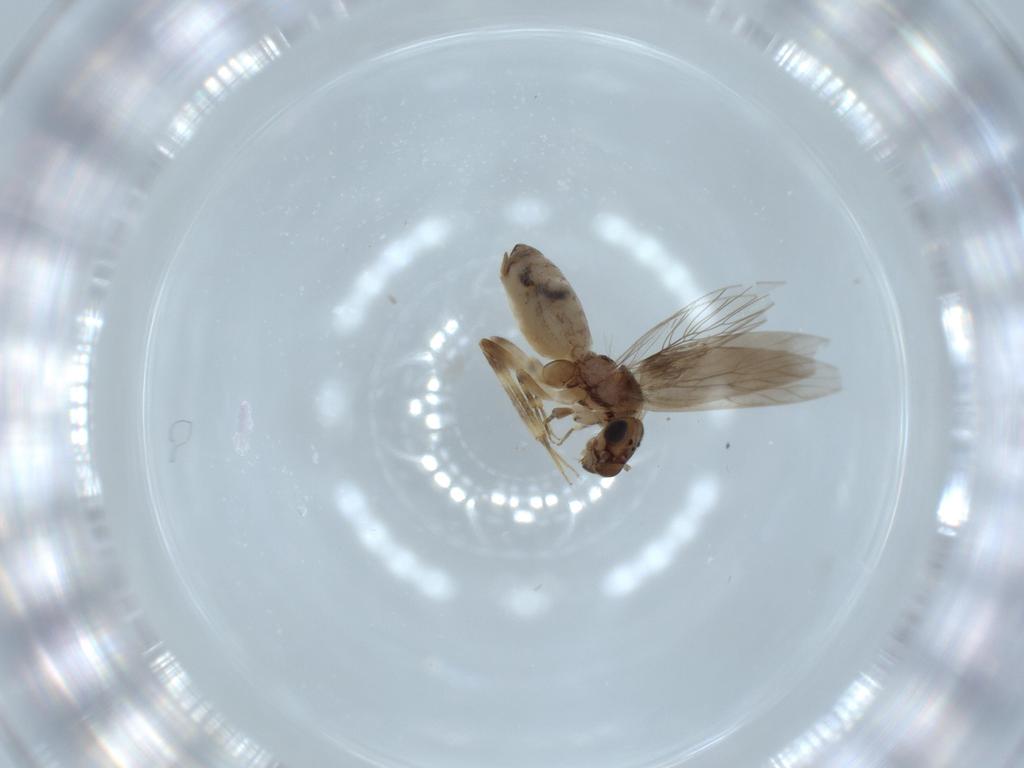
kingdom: Animalia
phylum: Arthropoda
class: Insecta
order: Psocodea
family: Lepidopsocidae
